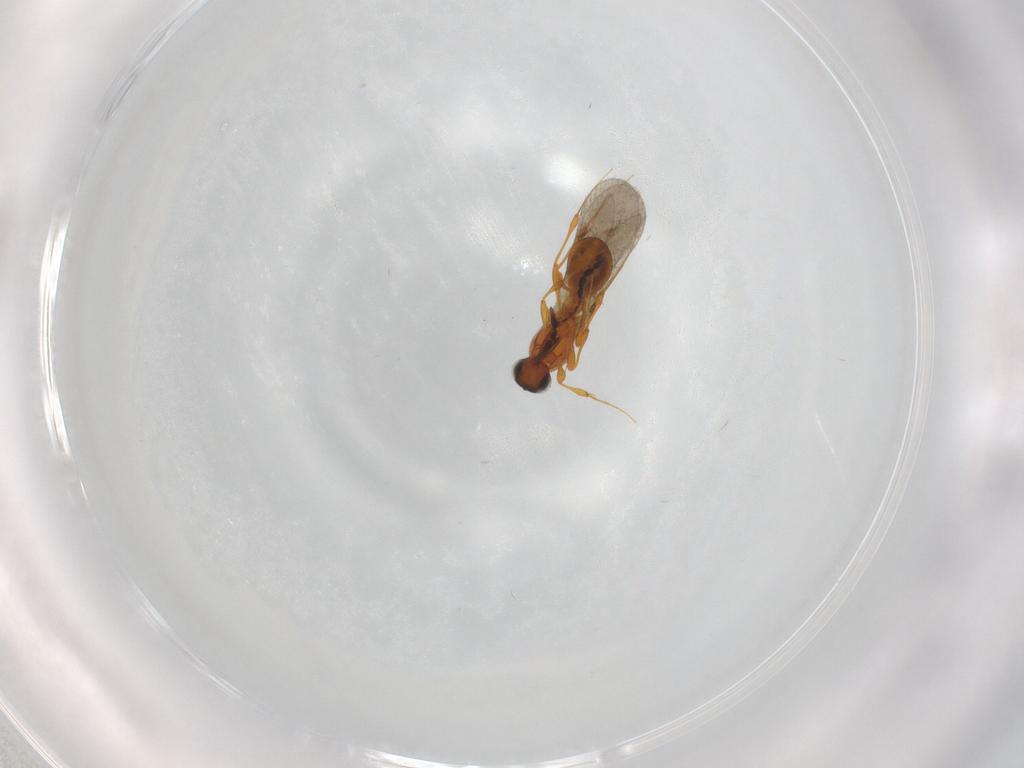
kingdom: Animalia
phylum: Arthropoda
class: Insecta
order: Hymenoptera
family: Platygastridae
